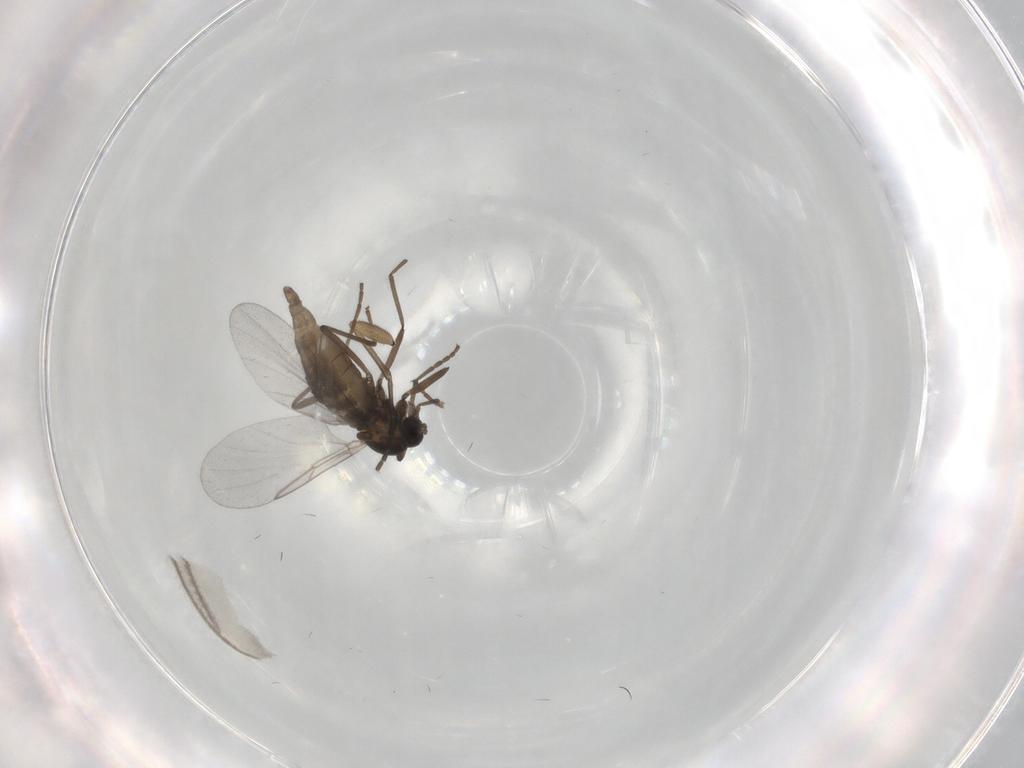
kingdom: Animalia
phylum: Arthropoda
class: Insecta
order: Diptera
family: Cecidomyiidae
